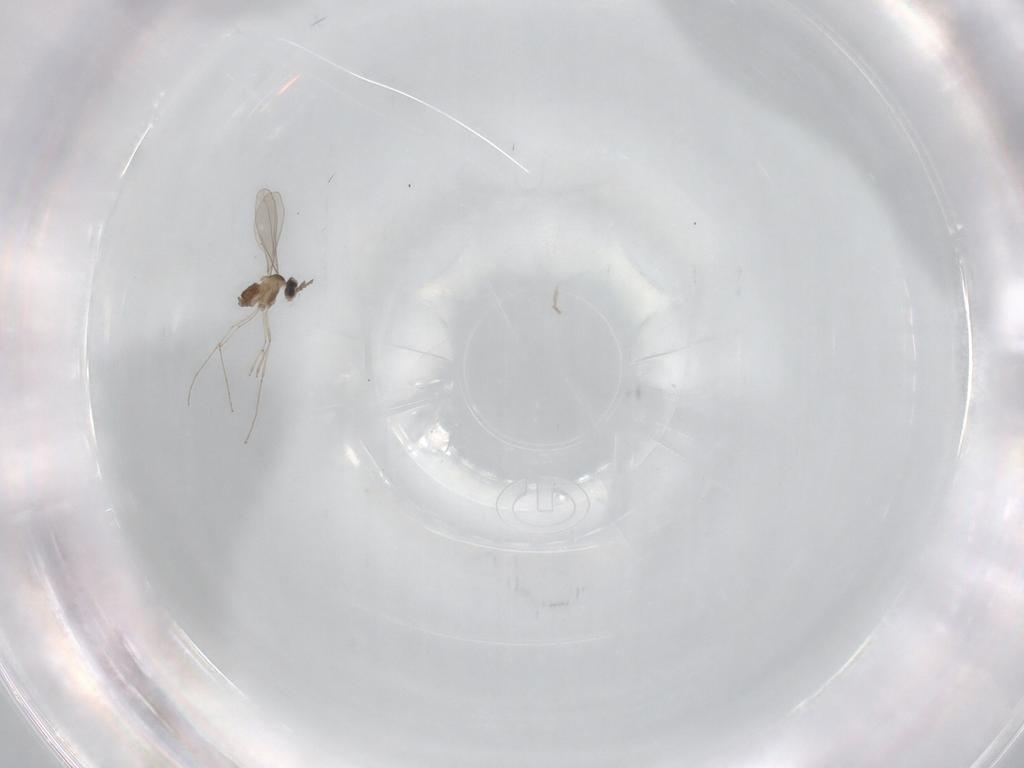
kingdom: Animalia
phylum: Arthropoda
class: Insecta
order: Diptera
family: Cecidomyiidae
